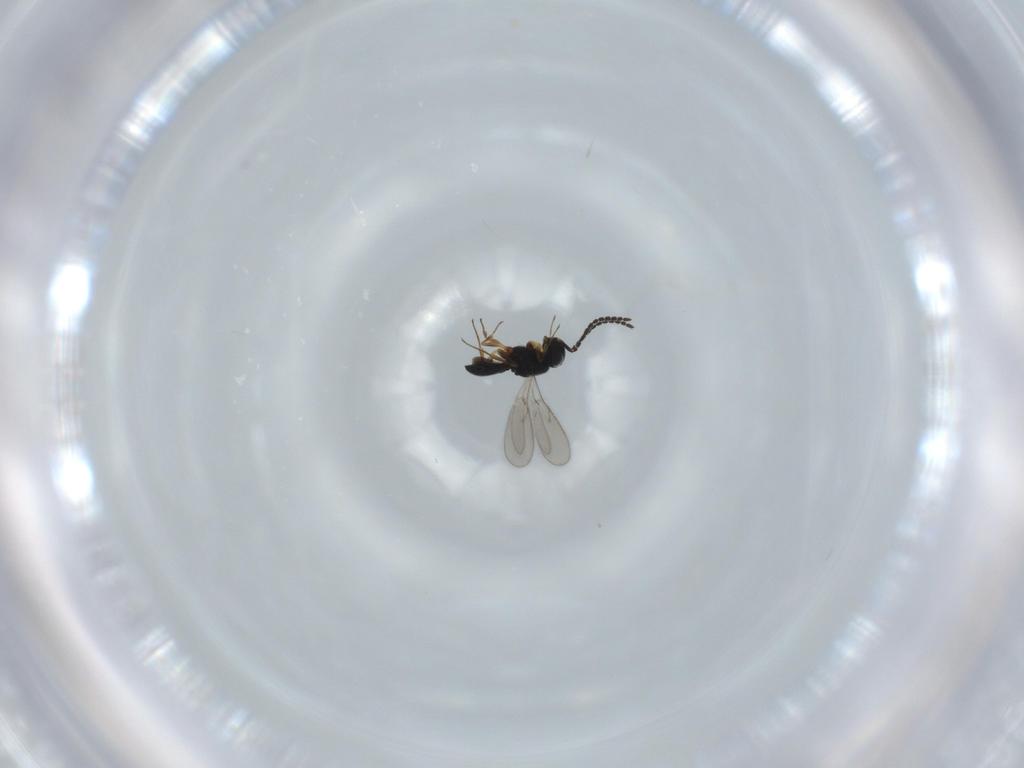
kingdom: Animalia
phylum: Arthropoda
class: Insecta
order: Hymenoptera
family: Scelionidae
